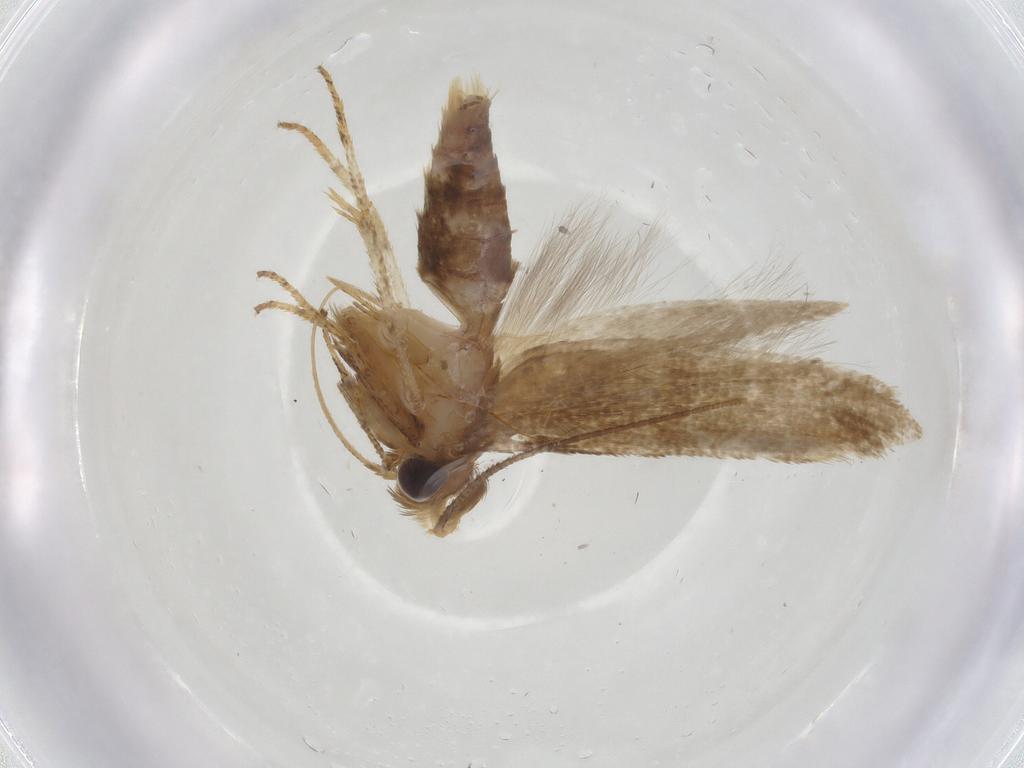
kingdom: Animalia
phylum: Arthropoda
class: Insecta
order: Lepidoptera
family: Blastobasidae
